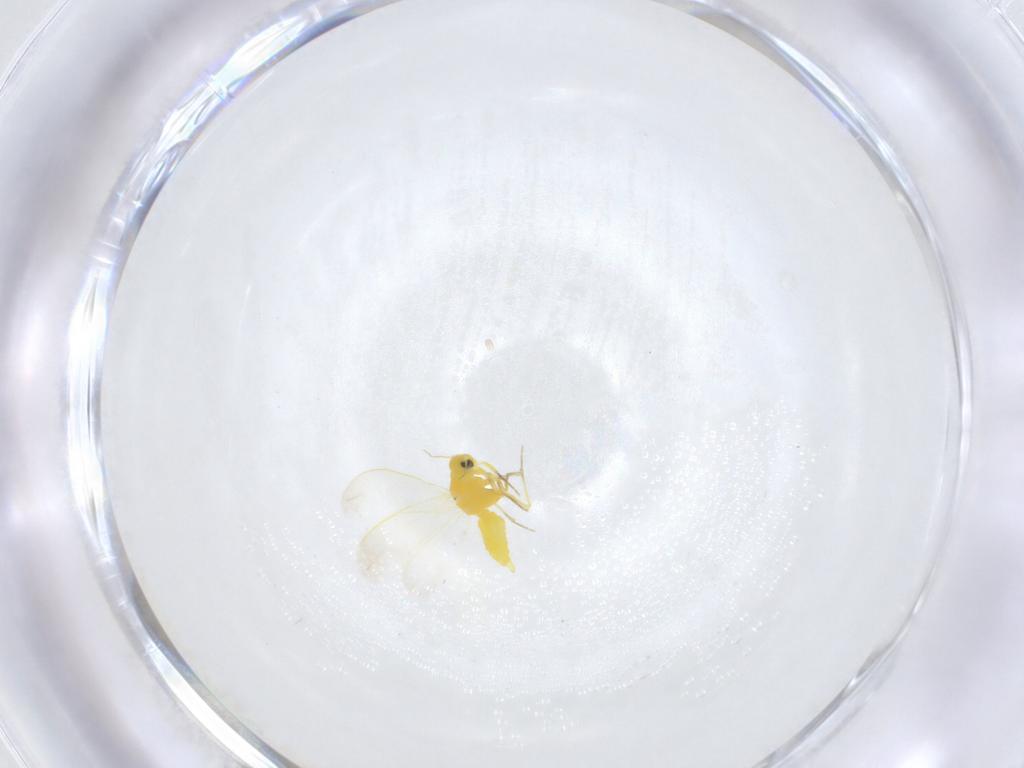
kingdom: Animalia
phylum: Arthropoda
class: Insecta
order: Hemiptera
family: Aleyrodidae
